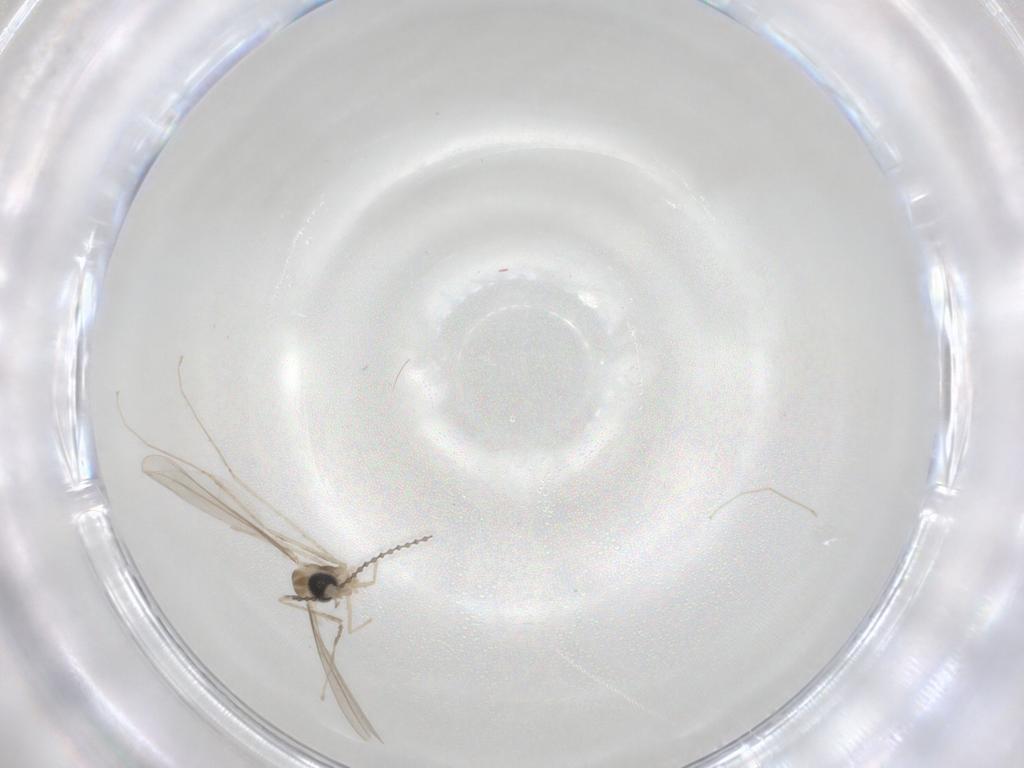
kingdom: Animalia
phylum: Arthropoda
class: Insecta
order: Diptera
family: Cecidomyiidae
